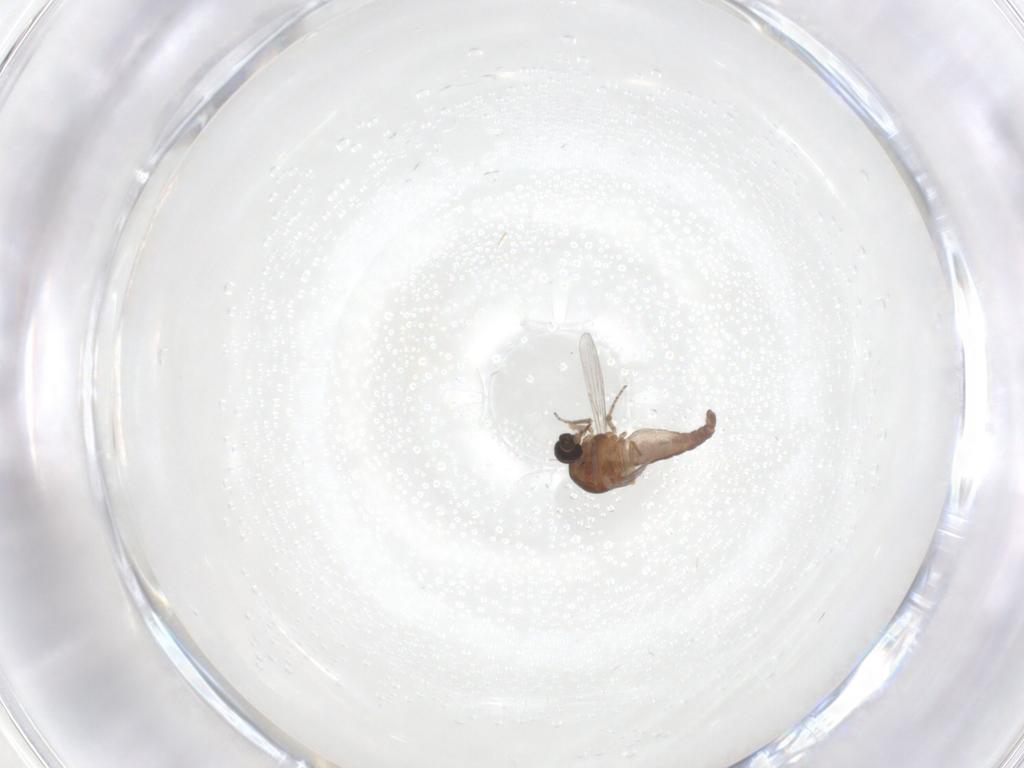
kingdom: Animalia
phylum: Arthropoda
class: Insecta
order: Diptera
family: Ceratopogonidae
